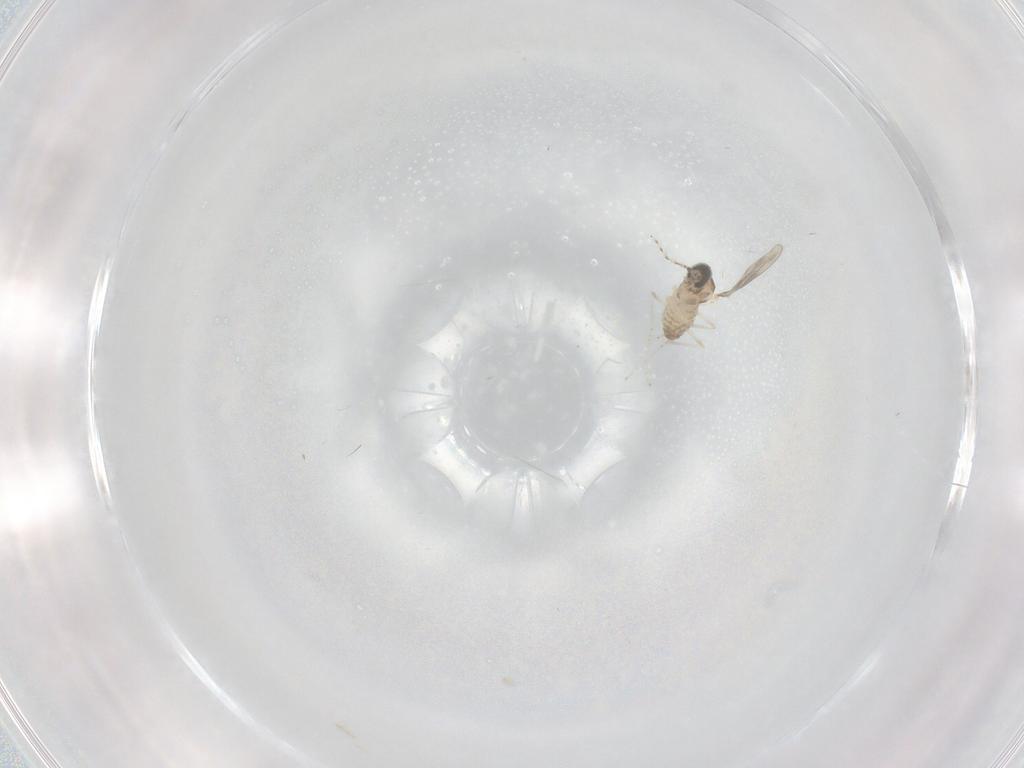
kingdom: Animalia
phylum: Arthropoda
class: Insecta
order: Diptera
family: Cecidomyiidae
